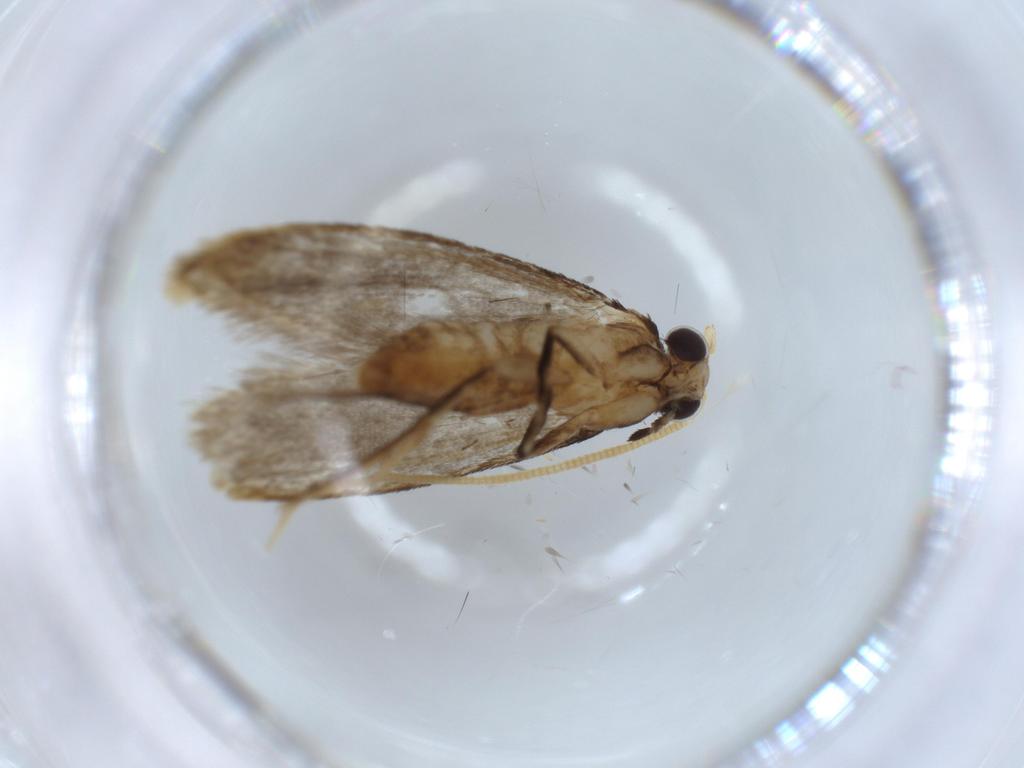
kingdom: Animalia
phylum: Arthropoda
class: Insecta
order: Lepidoptera
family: Tineidae
